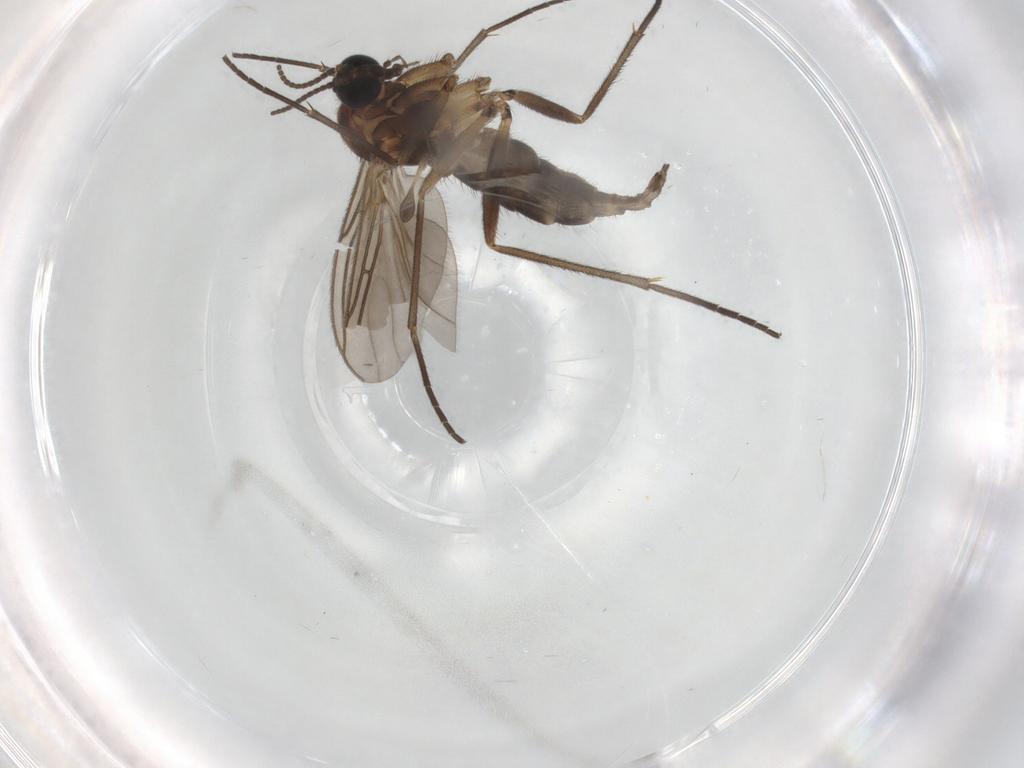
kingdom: Animalia
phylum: Arthropoda
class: Insecta
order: Diptera
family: Sciaridae
